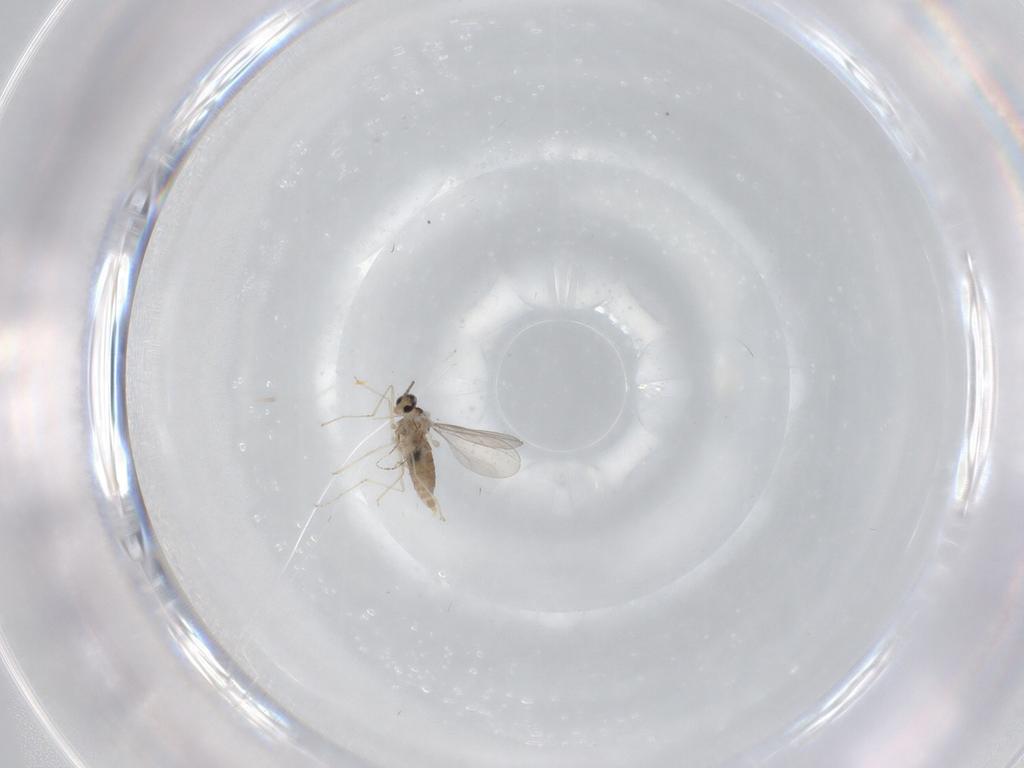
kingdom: Animalia
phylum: Arthropoda
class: Insecta
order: Diptera
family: Cecidomyiidae
